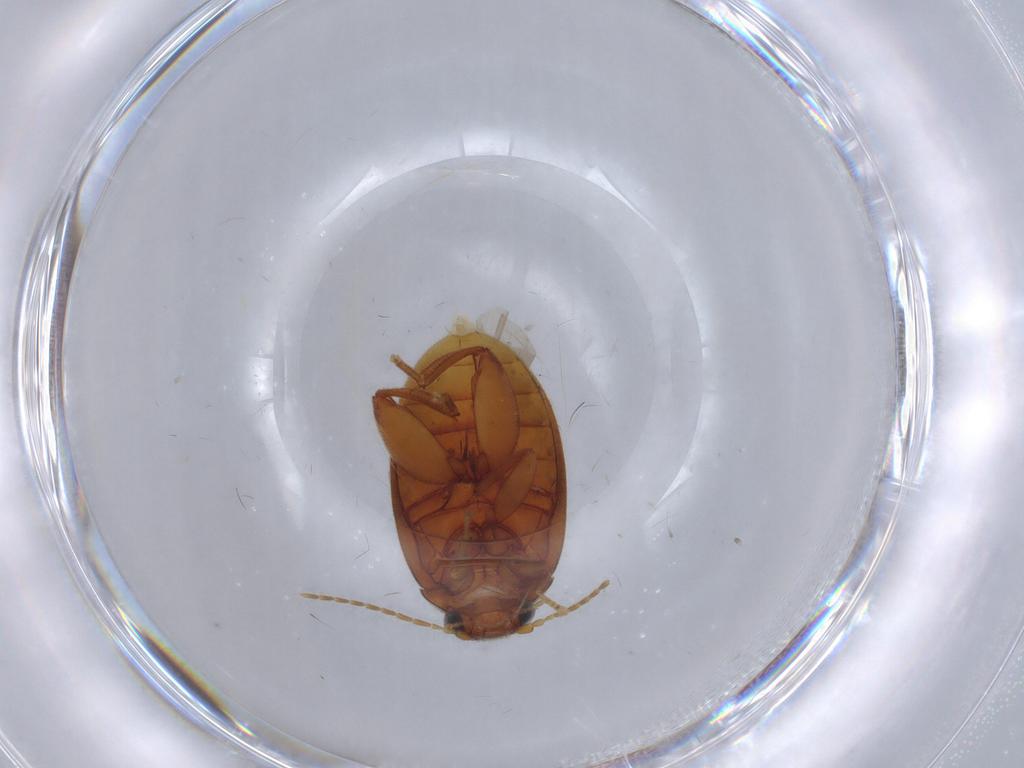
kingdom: Animalia
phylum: Arthropoda
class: Insecta
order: Coleoptera
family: Scirtidae
